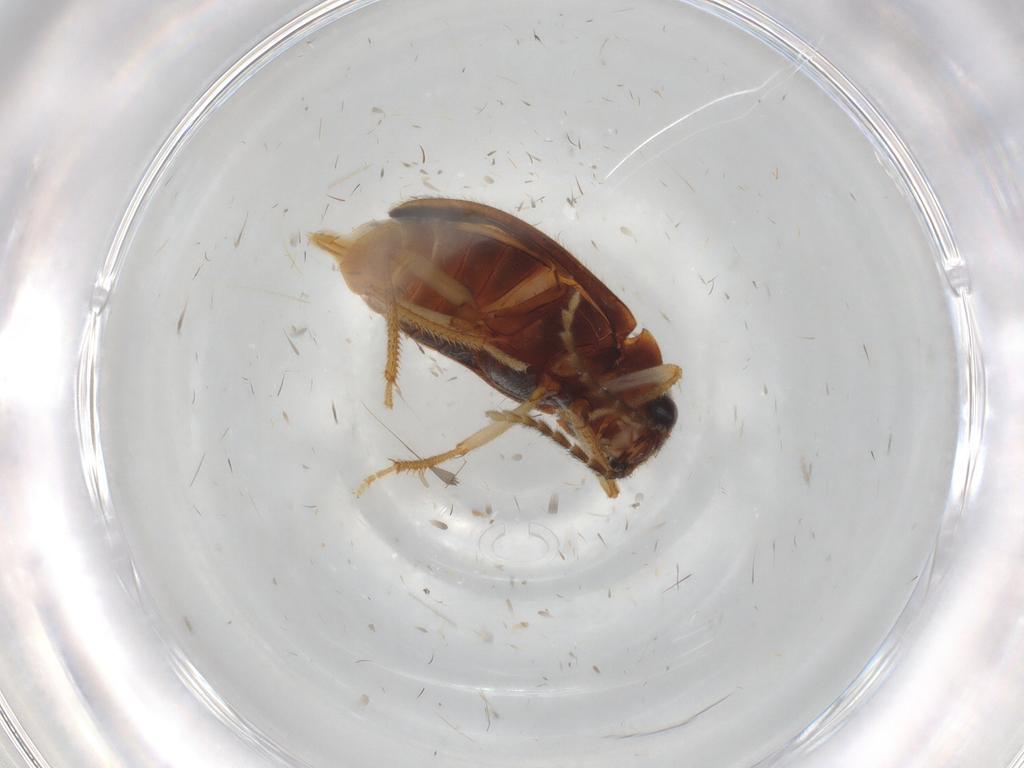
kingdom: Animalia
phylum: Arthropoda
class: Insecta
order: Coleoptera
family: Ptilodactylidae
